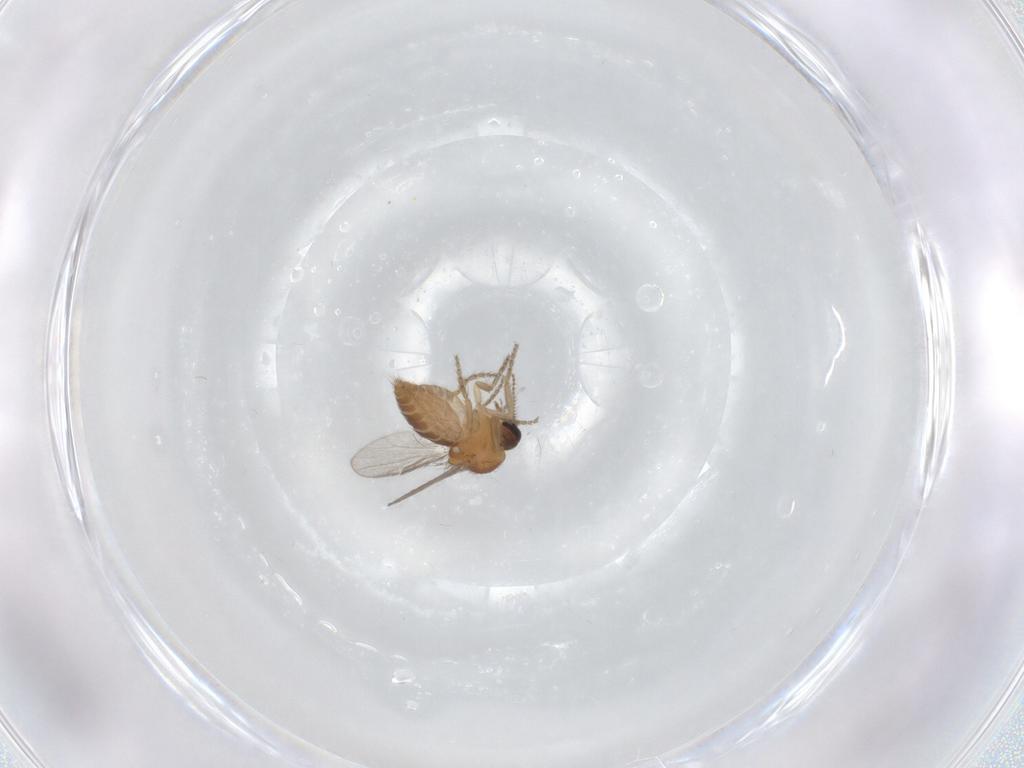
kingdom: Animalia
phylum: Arthropoda
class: Insecta
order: Diptera
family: Ceratopogonidae
